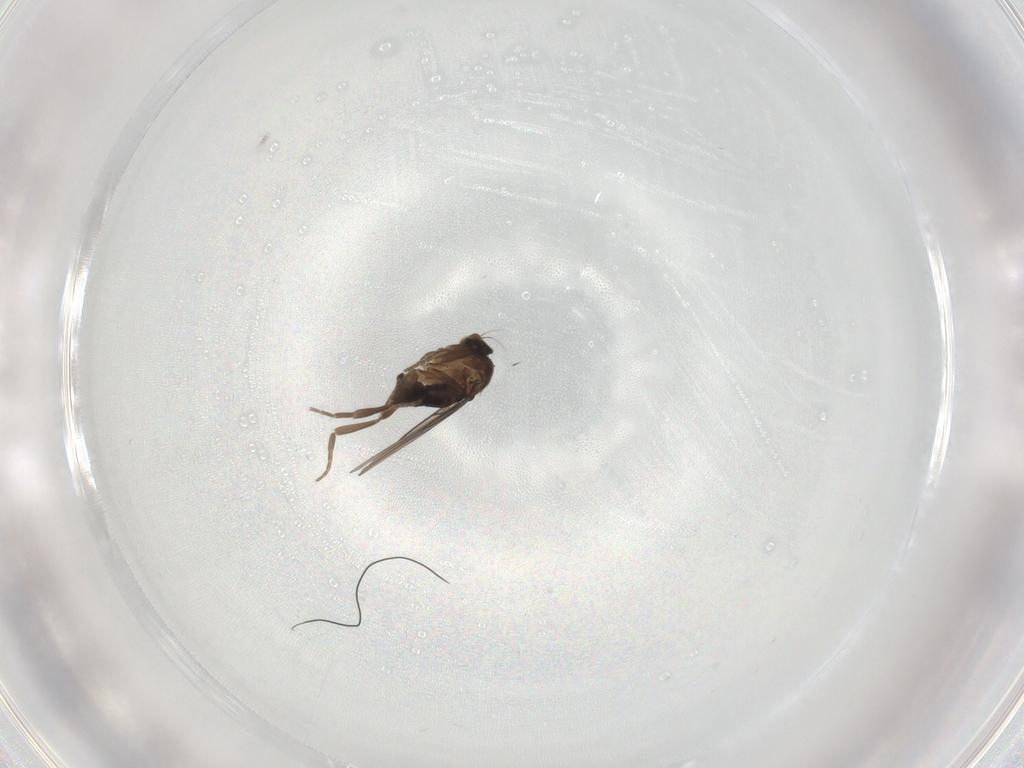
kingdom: Animalia
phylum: Arthropoda
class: Insecta
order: Diptera
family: Phoridae
